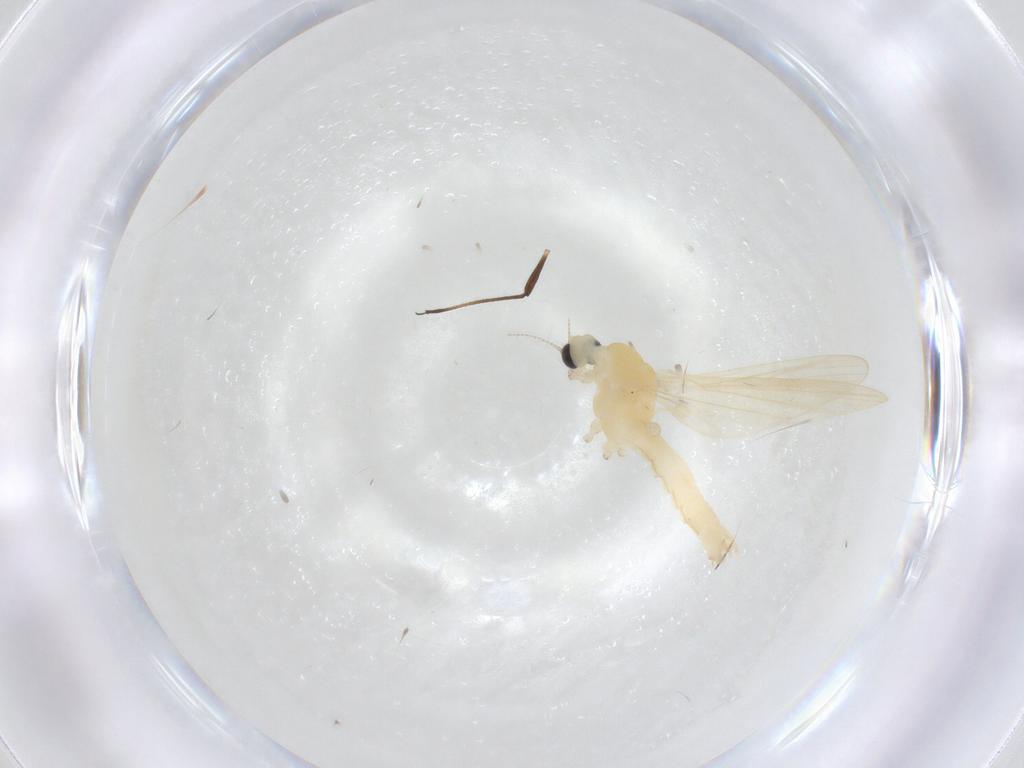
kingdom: Animalia
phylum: Arthropoda
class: Insecta
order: Diptera
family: Limoniidae
